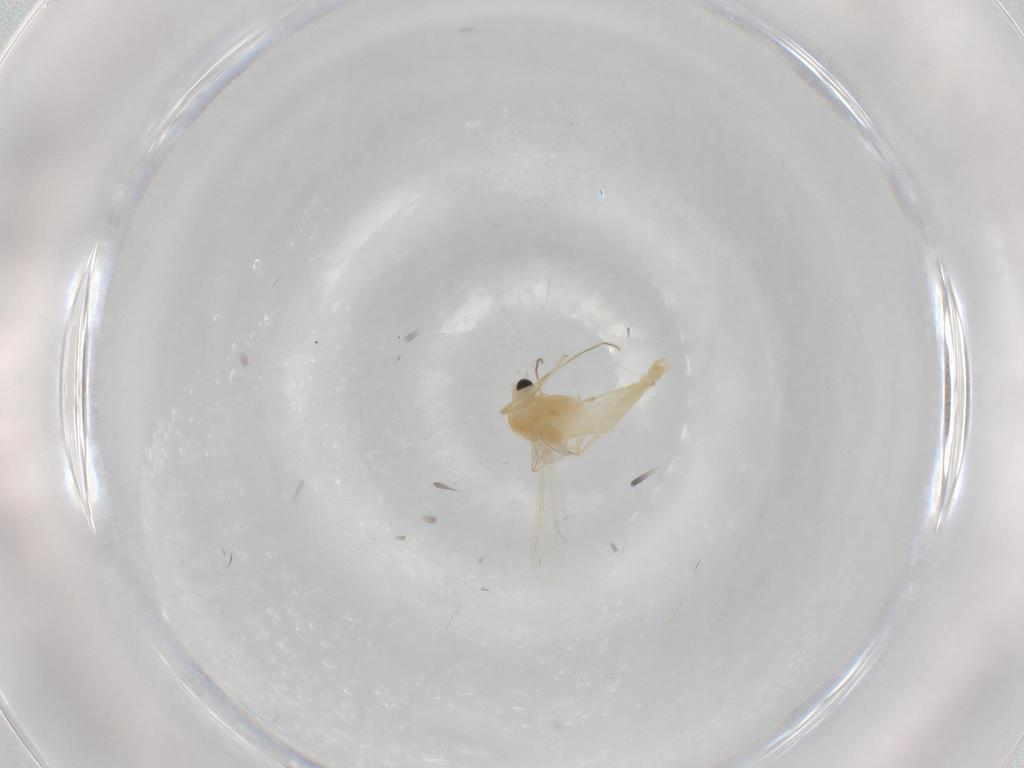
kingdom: Animalia
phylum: Arthropoda
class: Insecta
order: Diptera
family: Chironomidae
